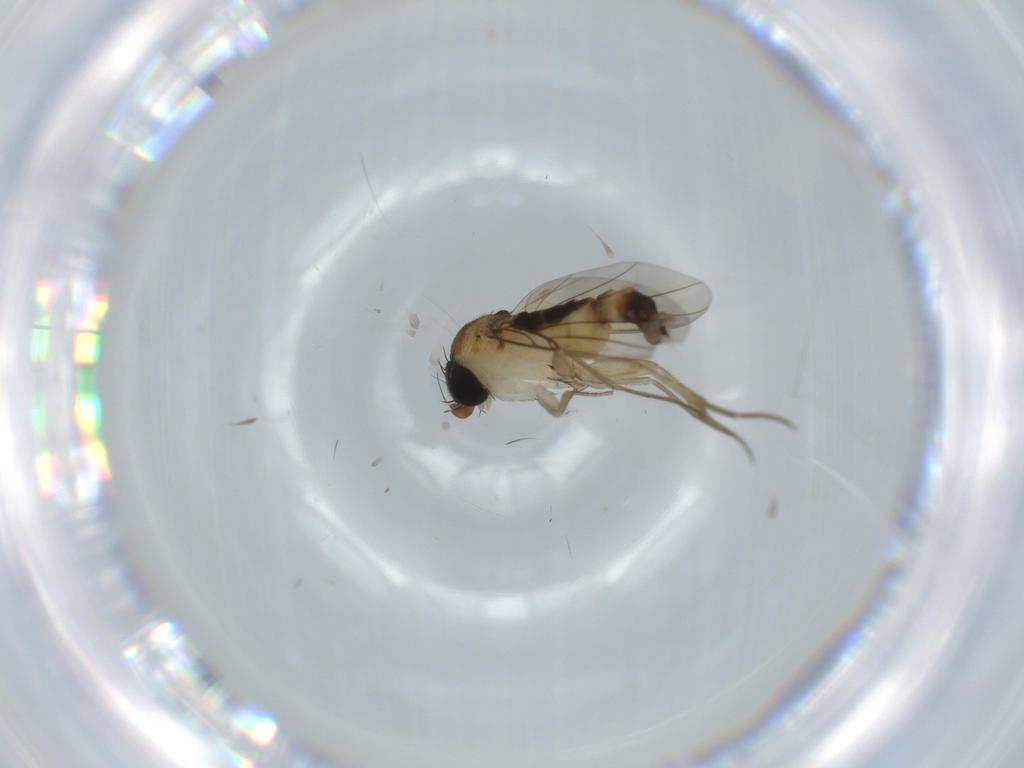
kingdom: Animalia
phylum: Arthropoda
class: Insecta
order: Diptera
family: Phoridae
